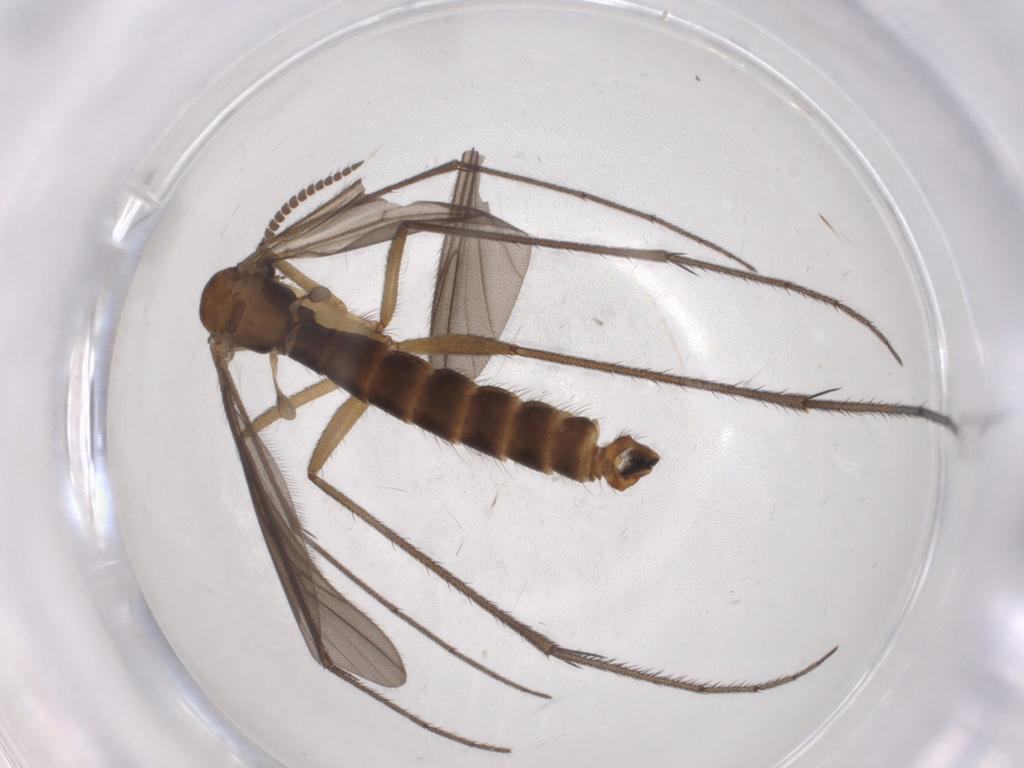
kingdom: Animalia
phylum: Arthropoda
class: Insecta
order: Diptera
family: Ditomyiidae
